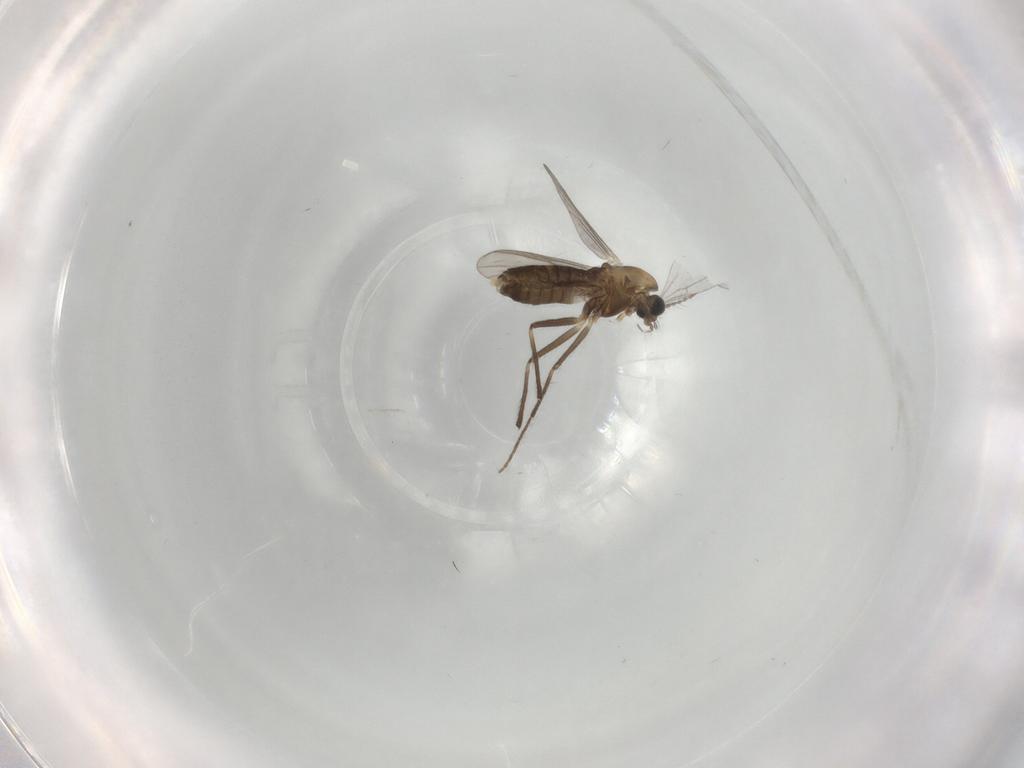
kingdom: Animalia
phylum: Arthropoda
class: Insecta
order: Diptera
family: Chironomidae
